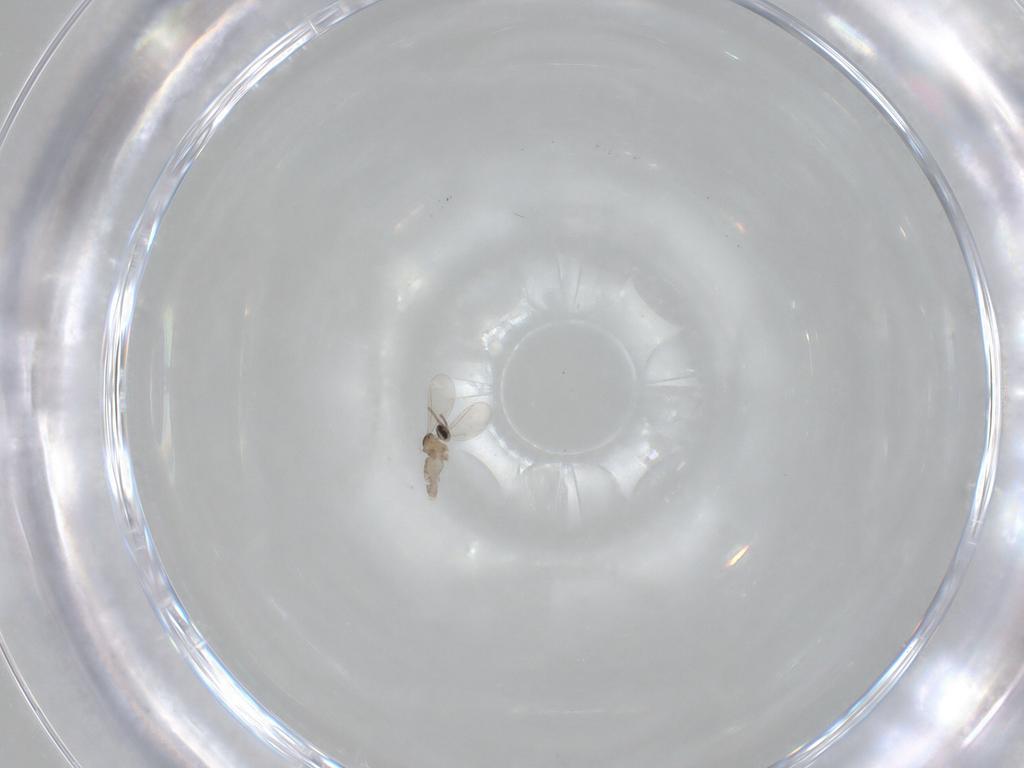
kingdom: Animalia
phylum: Arthropoda
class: Insecta
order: Diptera
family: Cecidomyiidae
